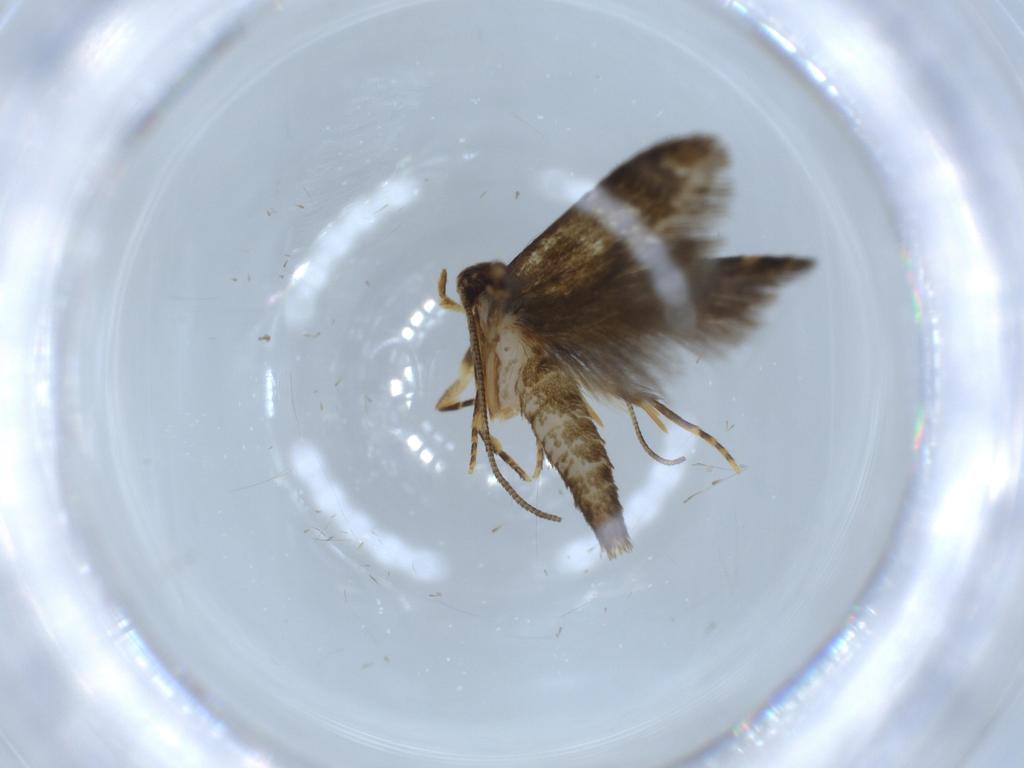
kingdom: Animalia
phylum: Arthropoda
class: Insecta
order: Lepidoptera
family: Tineidae
